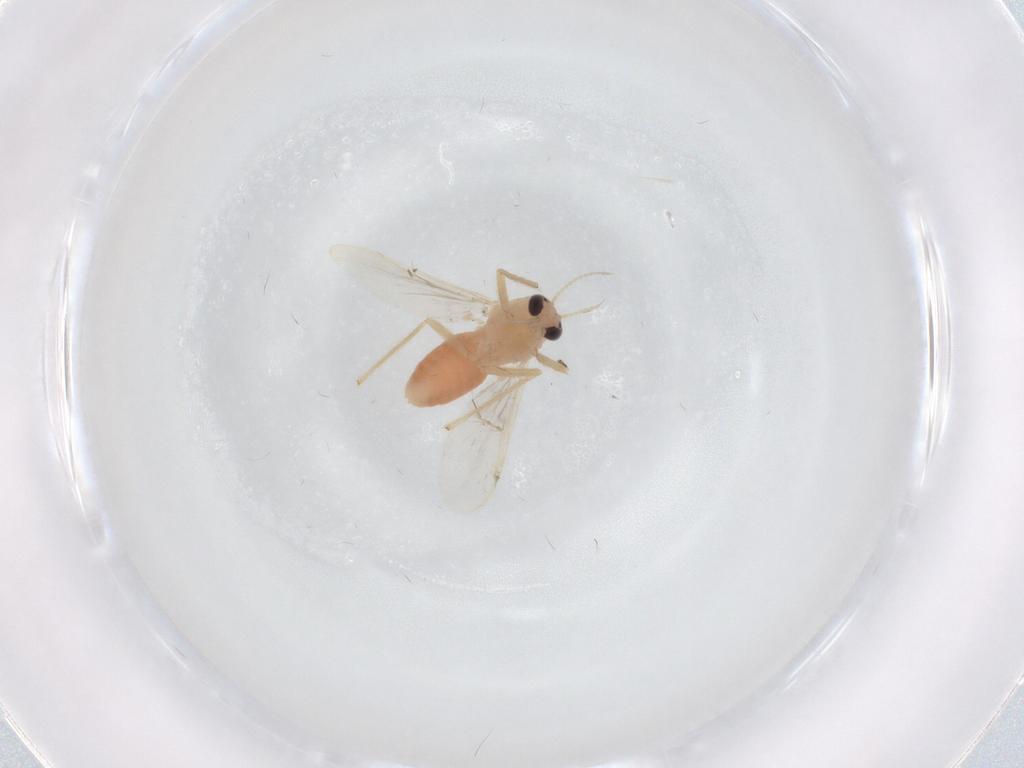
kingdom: Animalia
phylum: Arthropoda
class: Insecta
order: Diptera
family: Chironomidae
